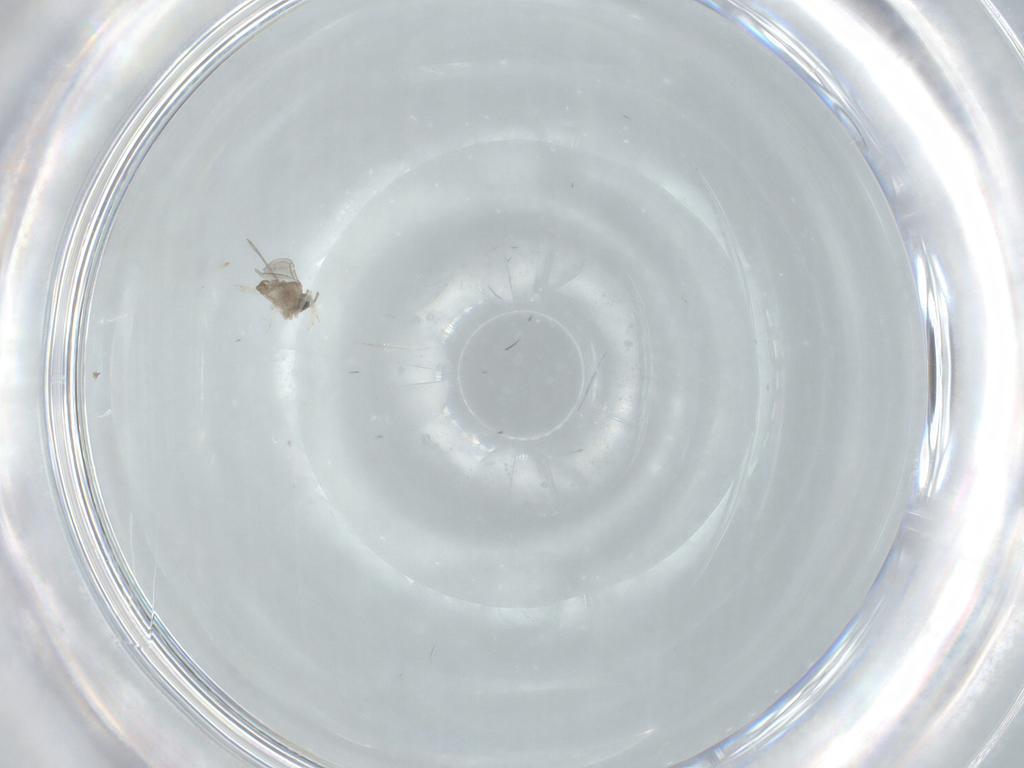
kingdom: Animalia
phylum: Arthropoda
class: Insecta
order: Diptera
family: Cecidomyiidae
